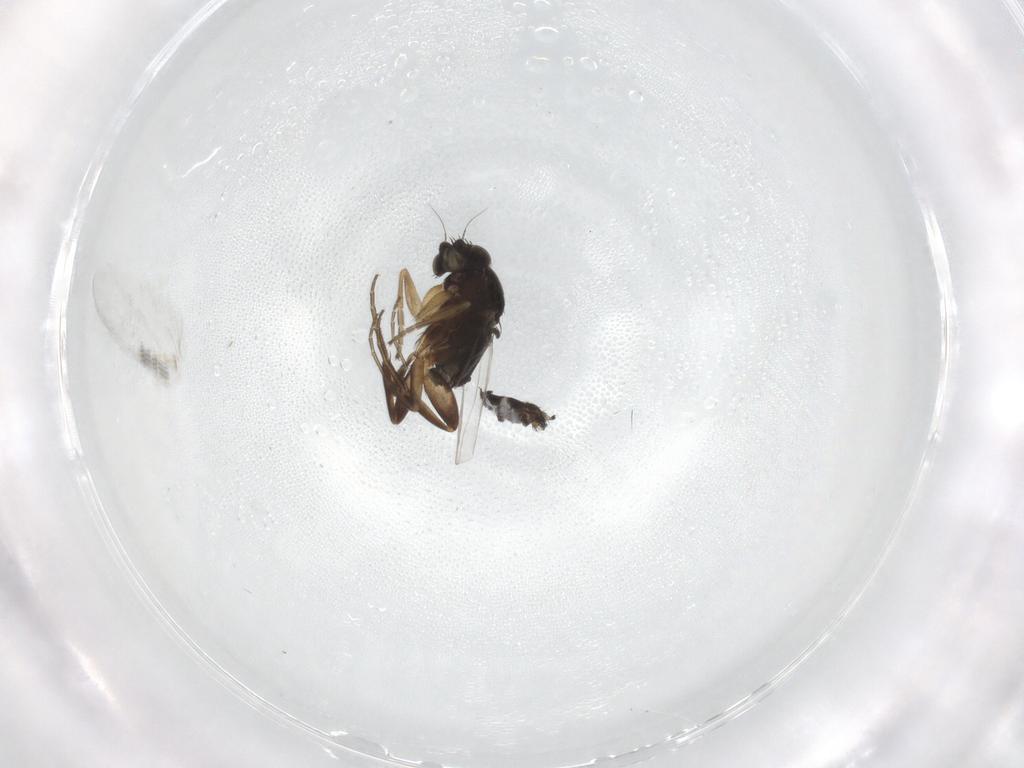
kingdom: Animalia
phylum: Arthropoda
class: Insecta
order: Diptera
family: Phoridae
